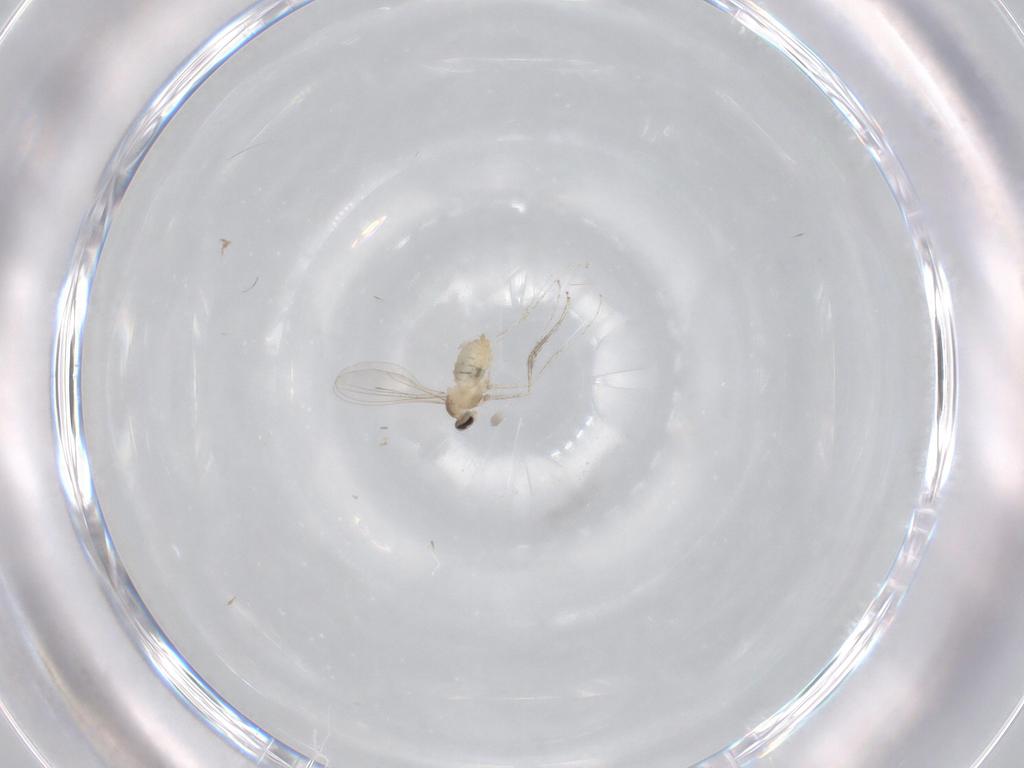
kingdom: Animalia
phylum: Arthropoda
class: Insecta
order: Diptera
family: Cecidomyiidae
